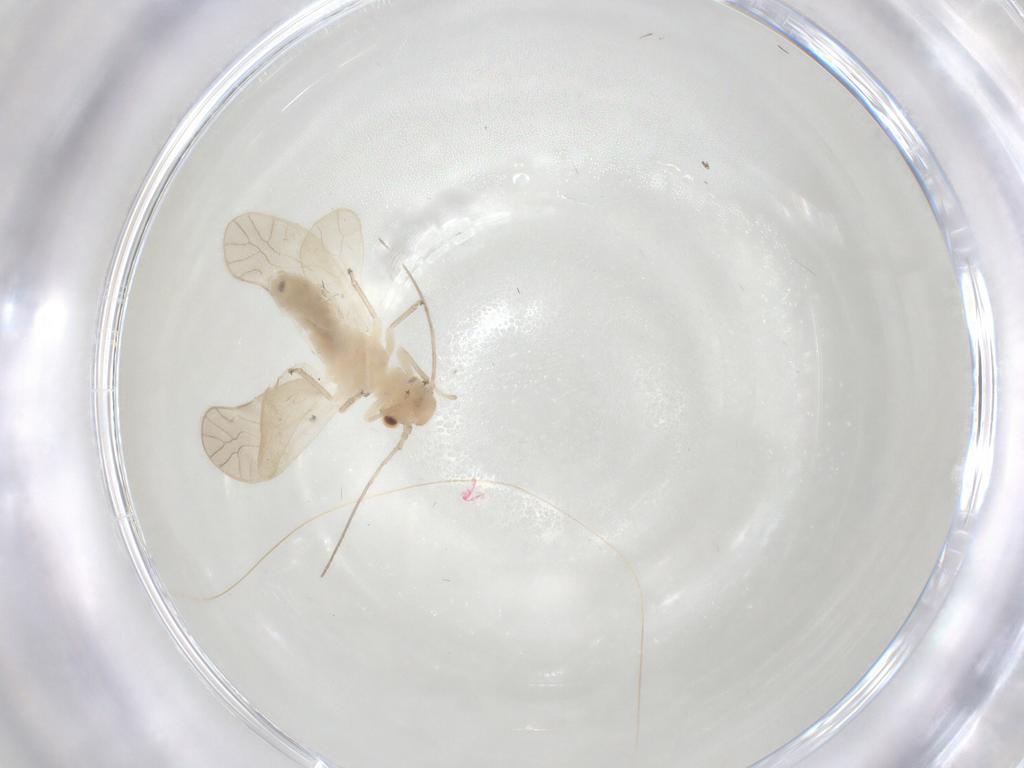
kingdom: Animalia
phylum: Arthropoda
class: Insecta
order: Psocodea
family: Caeciliusidae
